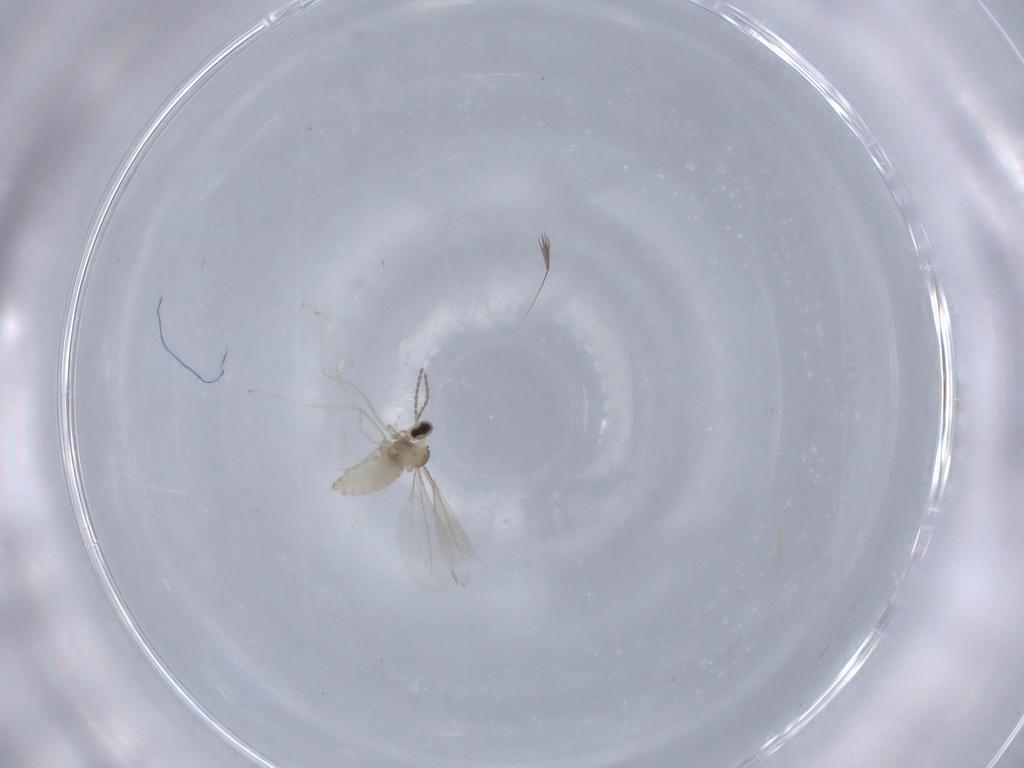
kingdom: Animalia
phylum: Arthropoda
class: Insecta
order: Diptera
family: Cecidomyiidae
